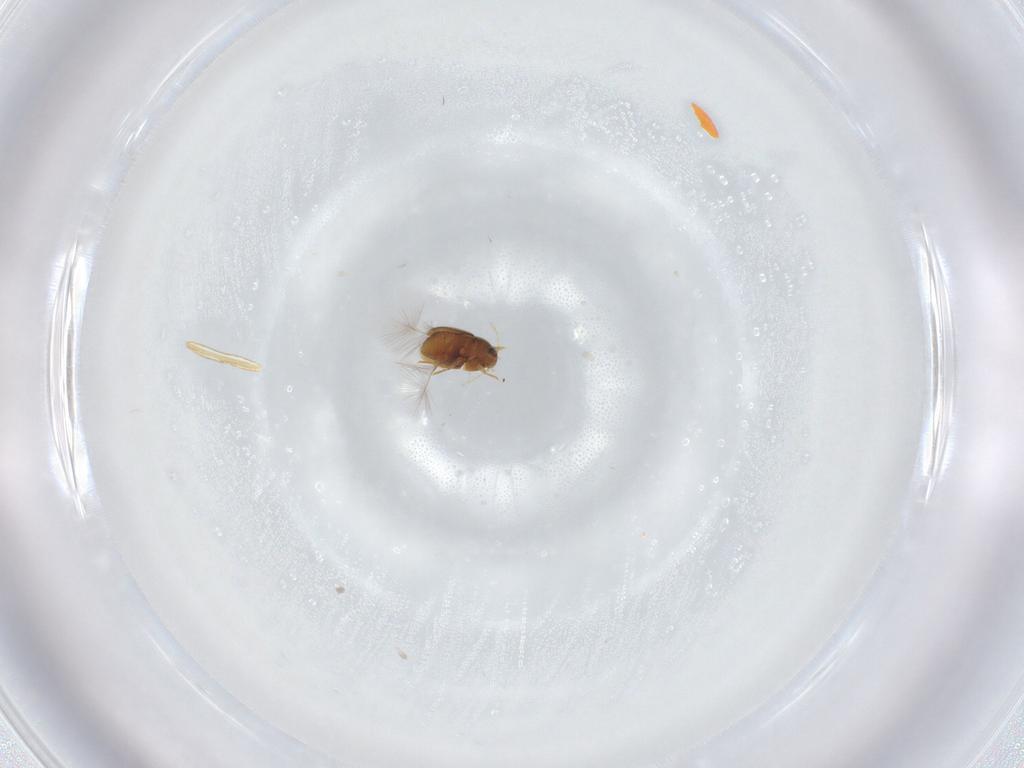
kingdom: Animalia
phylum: Arthropoda
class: Insecta
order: Coleoptera
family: Ptiliidae
